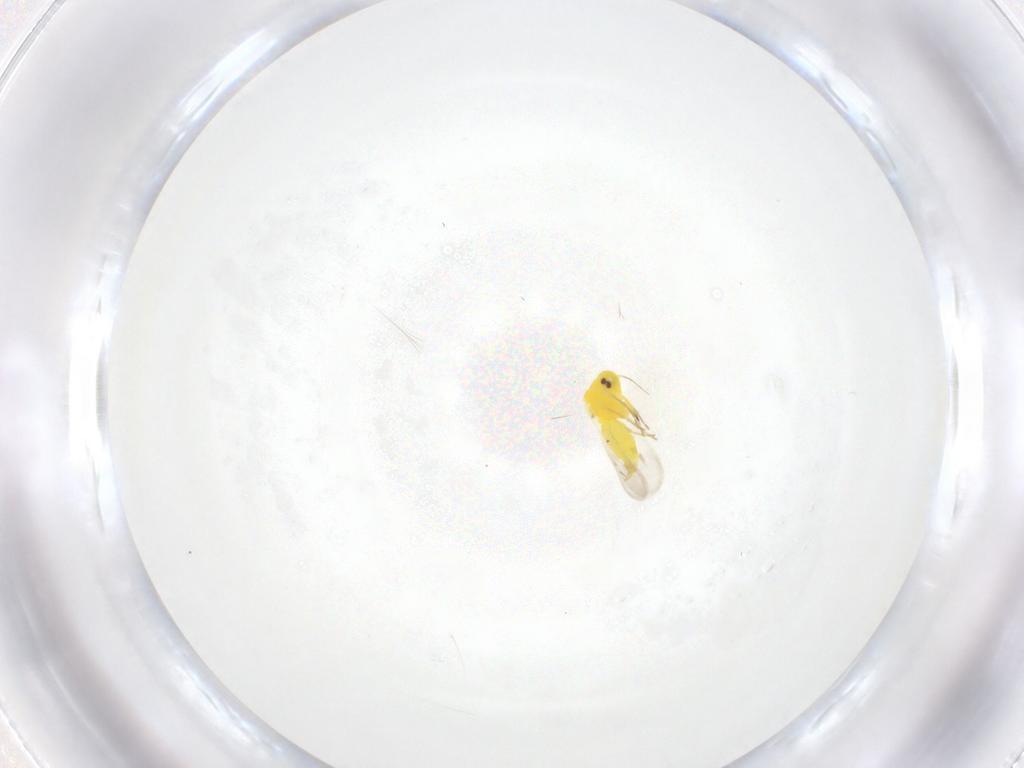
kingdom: Animalia
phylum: Arthropoda
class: Insecta
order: Hemiptera
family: Aleyrodidae
